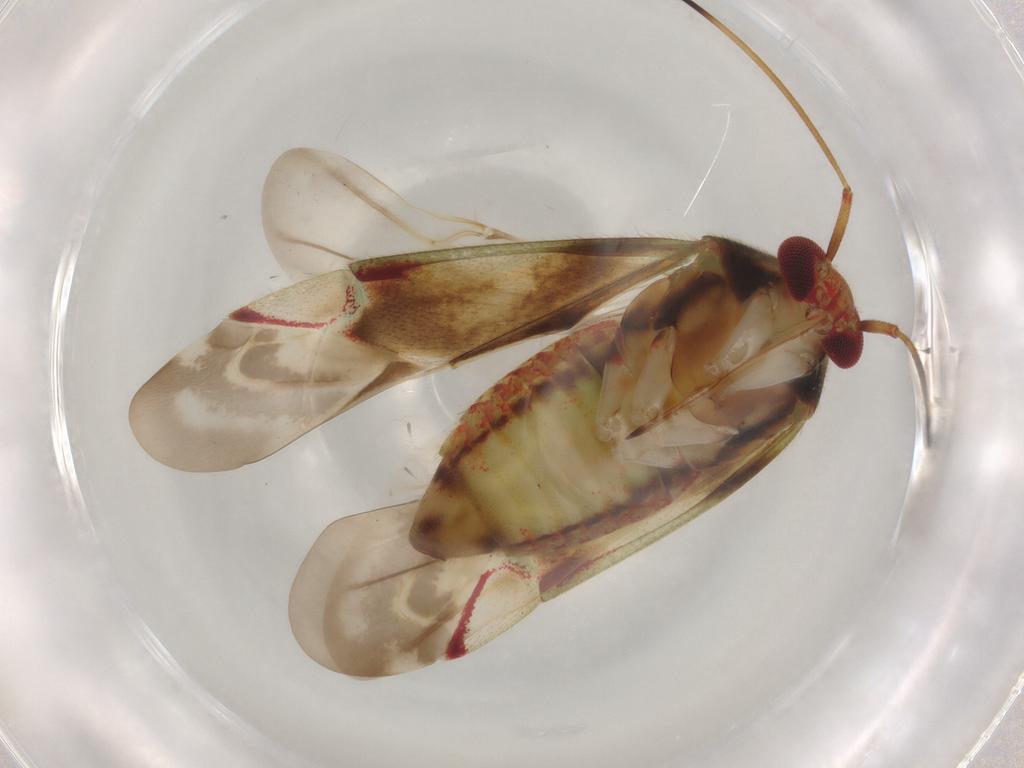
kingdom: Animalia
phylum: Arthropoda
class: Insecta
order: Hemiptera
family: Miridae
